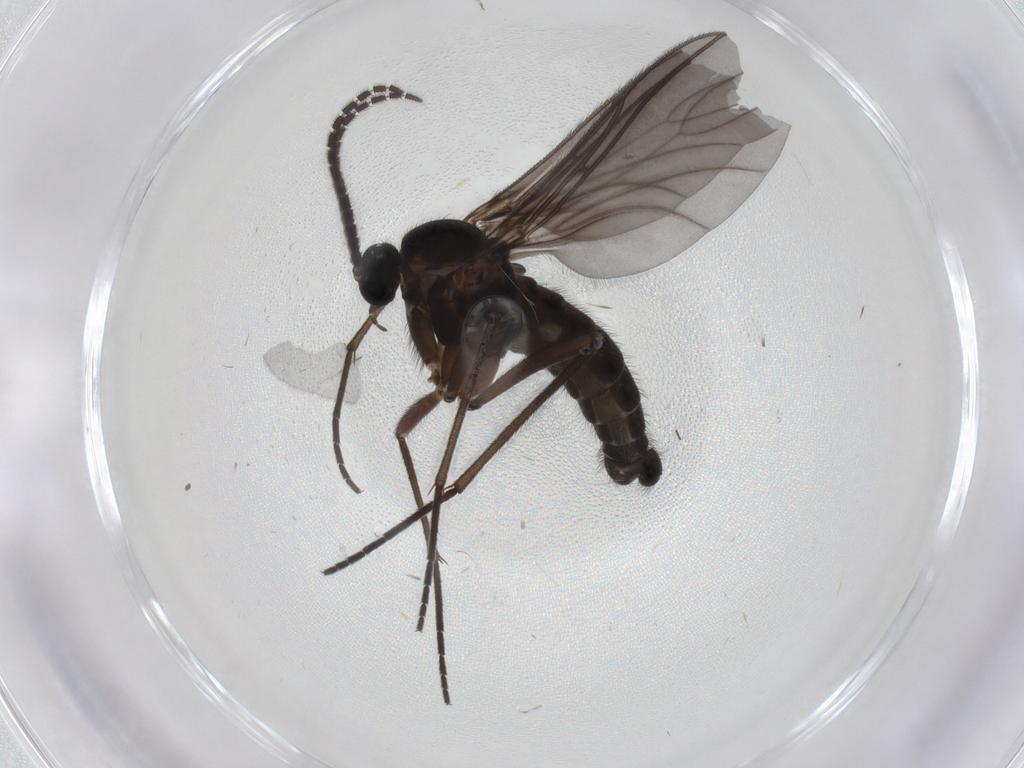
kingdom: Animalia
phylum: Arthropoda
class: Insecta
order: Diptera
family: Sciaridae
